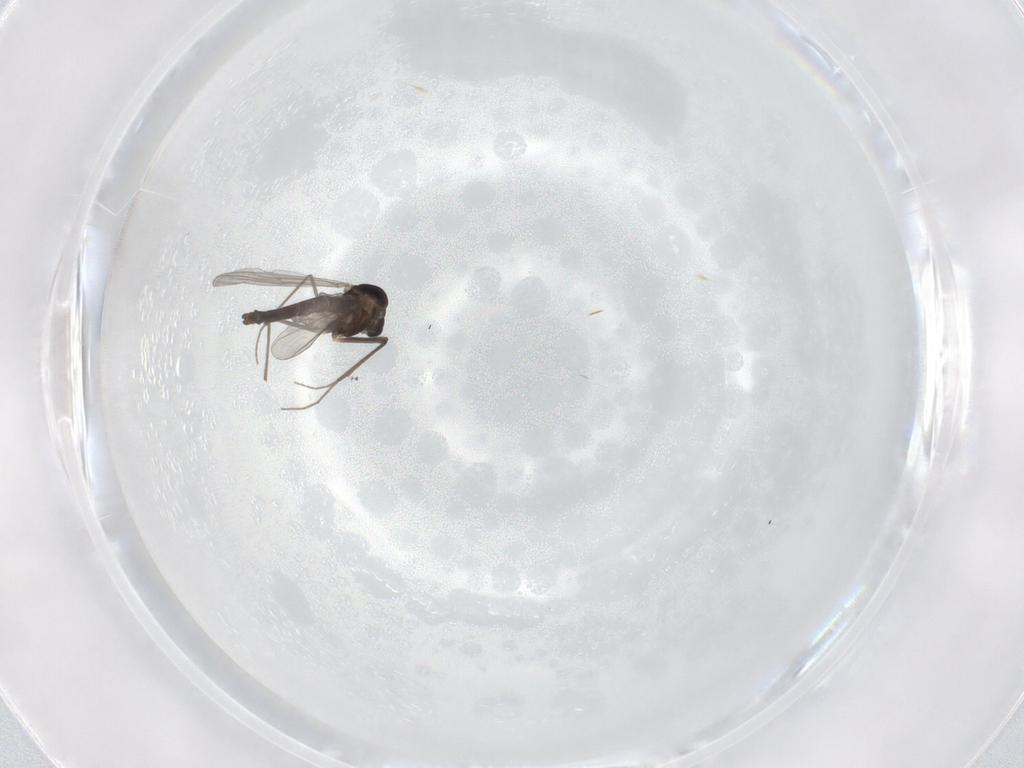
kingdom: Animalia
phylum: Arthropoda
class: Insecta
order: Diptera
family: Chironomidae
